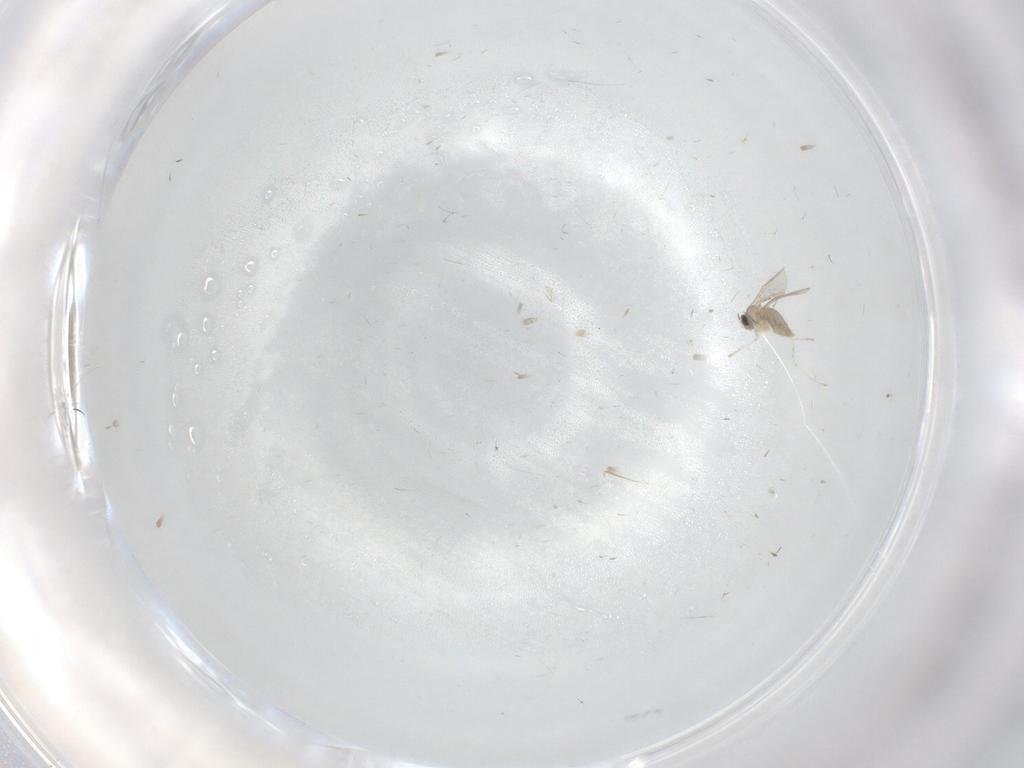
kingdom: Animalia
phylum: Arthropoda
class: Insecta
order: Diptera
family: Cecidomyiidae
